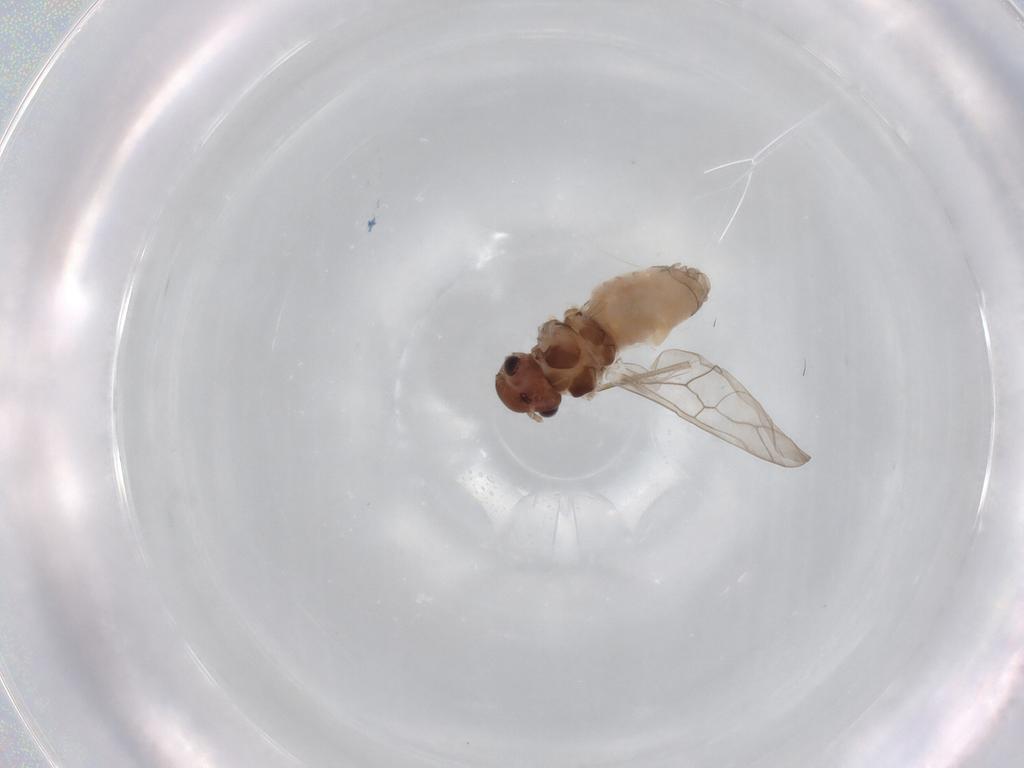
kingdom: Animalia
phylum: Arthropoda
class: Insecta
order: Psocodea
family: Peripsocidae
